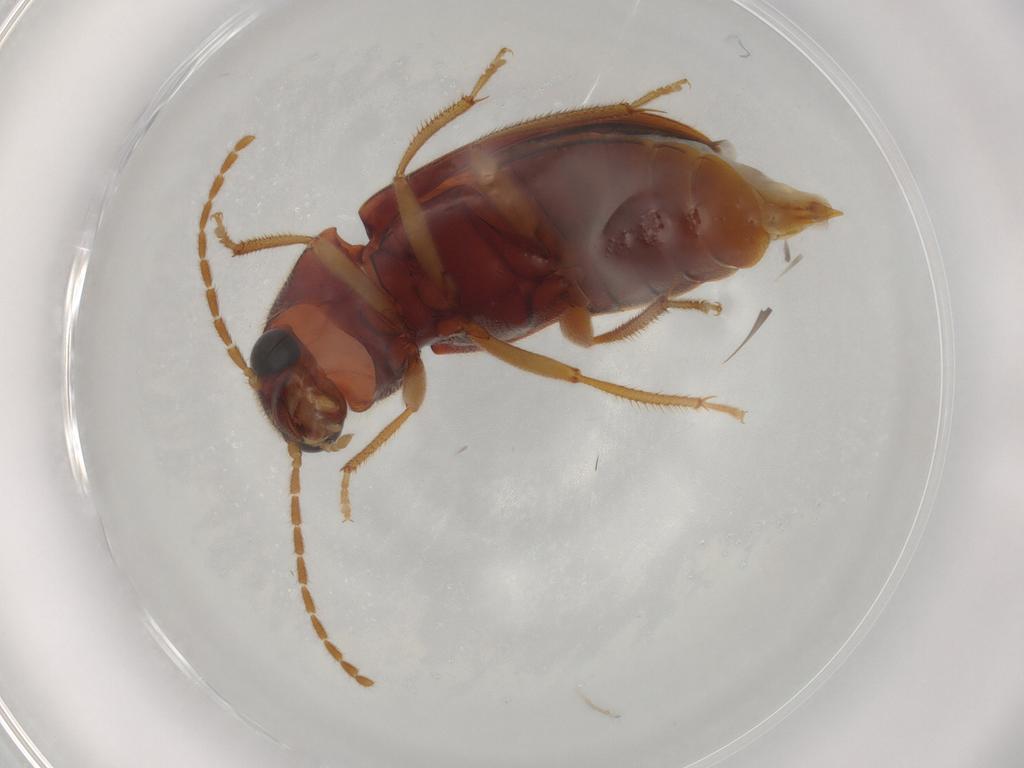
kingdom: Animalia
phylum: Arthropoda
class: Insecta
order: Coleoptera
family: Ptilodactylidae
